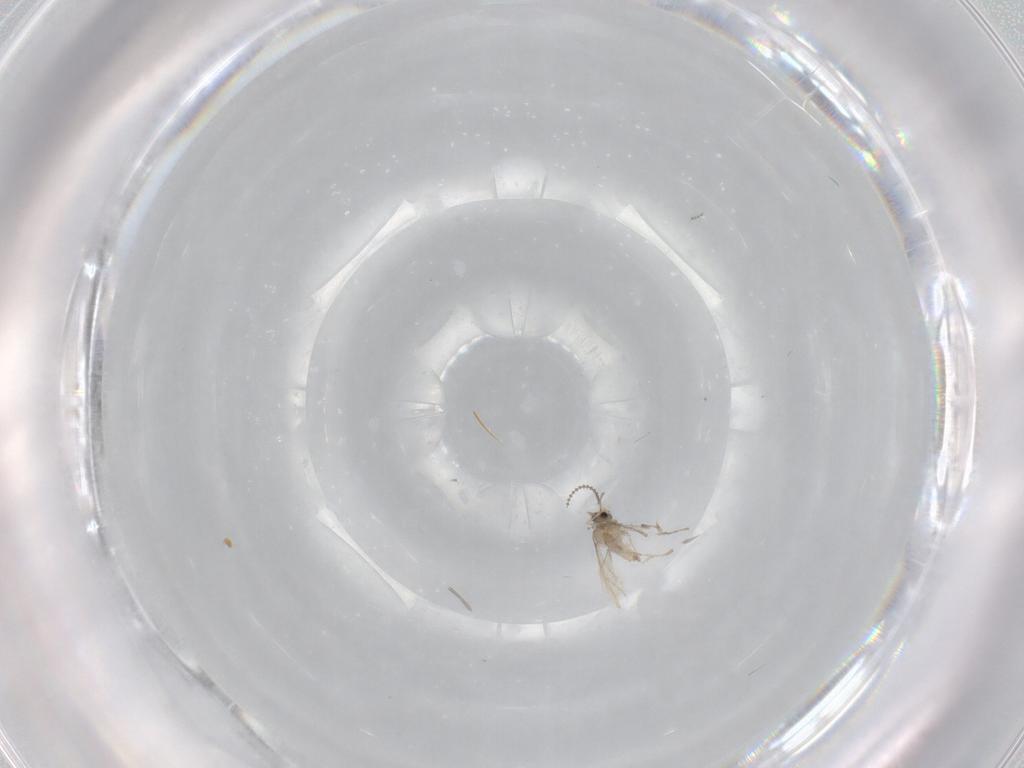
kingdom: Animalia
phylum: Arthropoda
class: Insecta
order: Diptera
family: Cecidomyiidae
